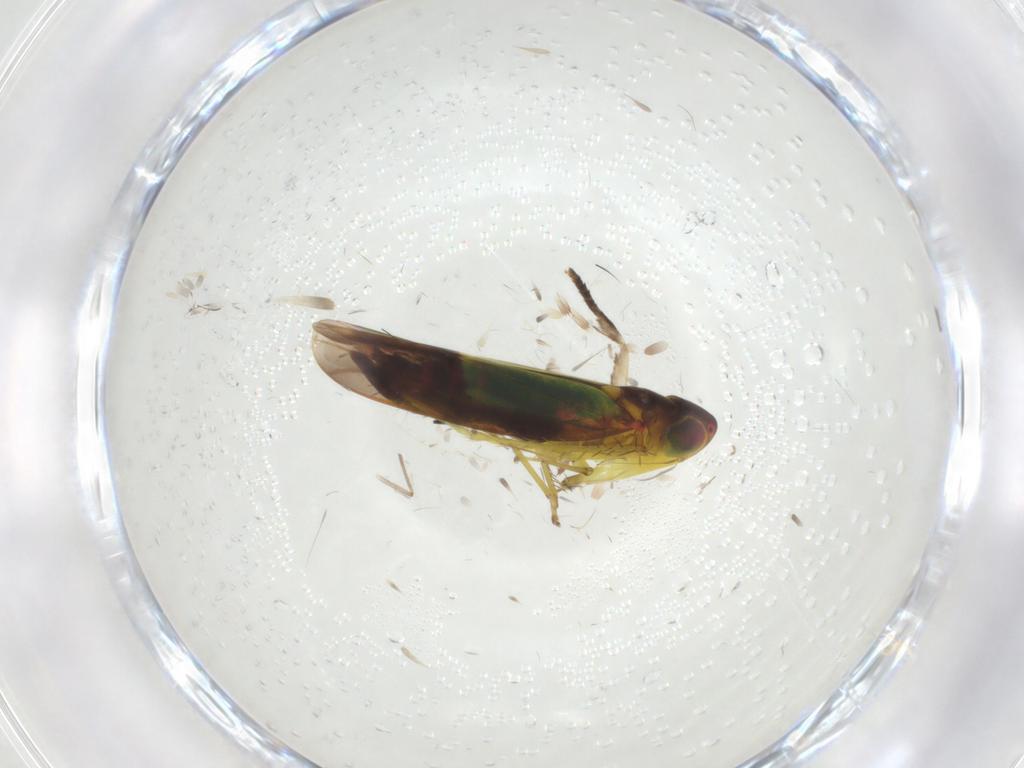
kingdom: Animalia
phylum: Arthropoda
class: Insecta
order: Hemiptera
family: Cicadellidae
